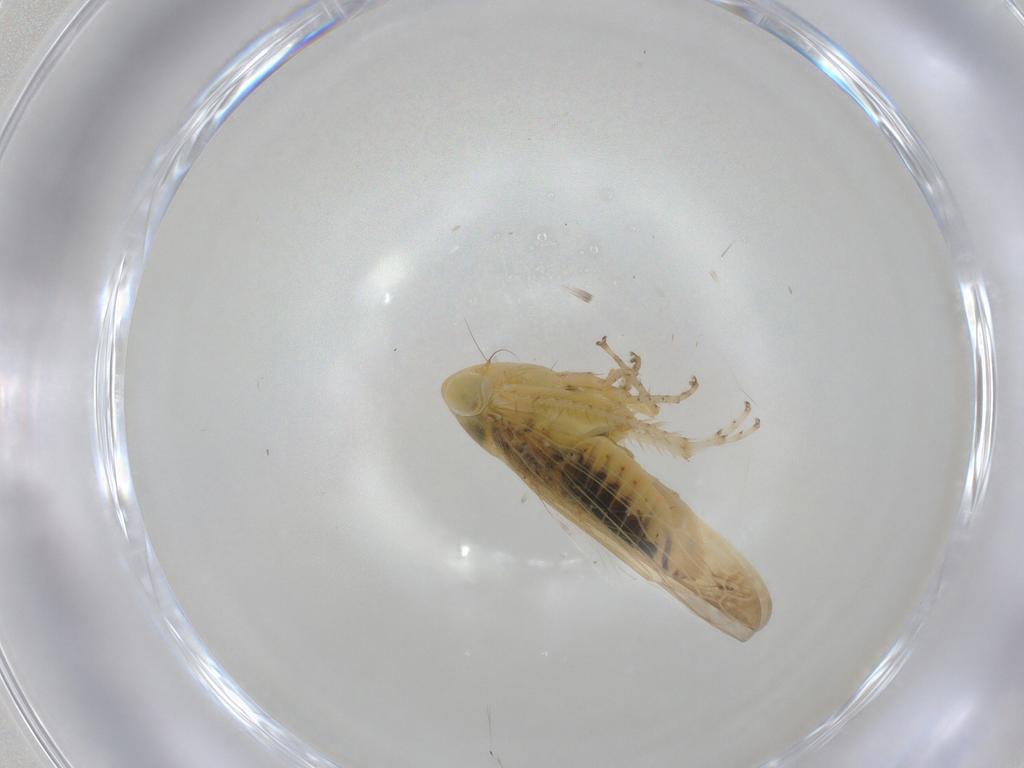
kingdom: Animalia
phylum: Arthropoda
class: Insecta
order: Hemiptera
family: Cicadellidae
